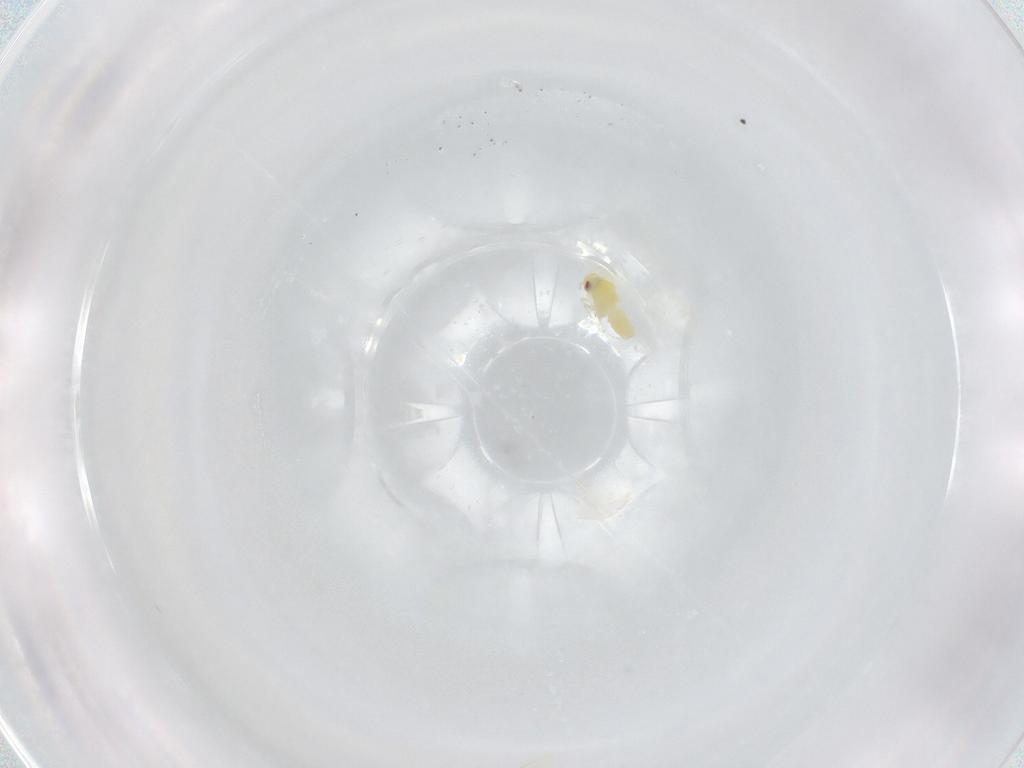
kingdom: Animalia
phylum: Arthropoda
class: Insecta
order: Hemiptera
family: Aleyrodidae
